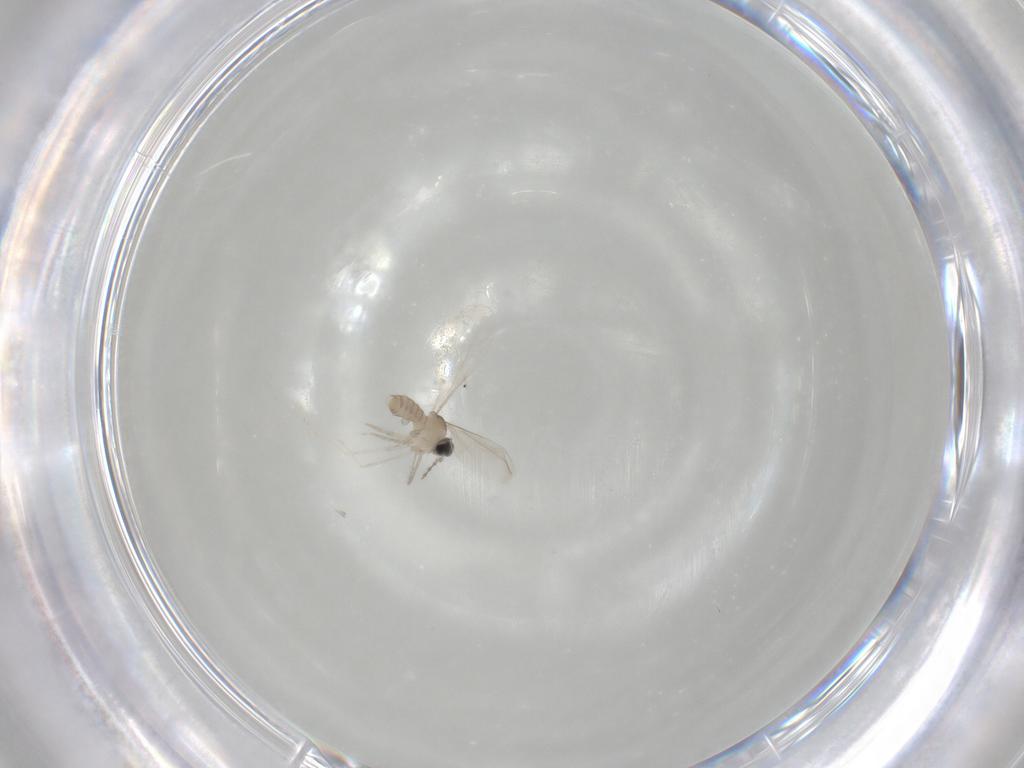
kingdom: Animalia
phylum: Arthropoda
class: Insecta
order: Diptera
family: Cecidomyiidae
